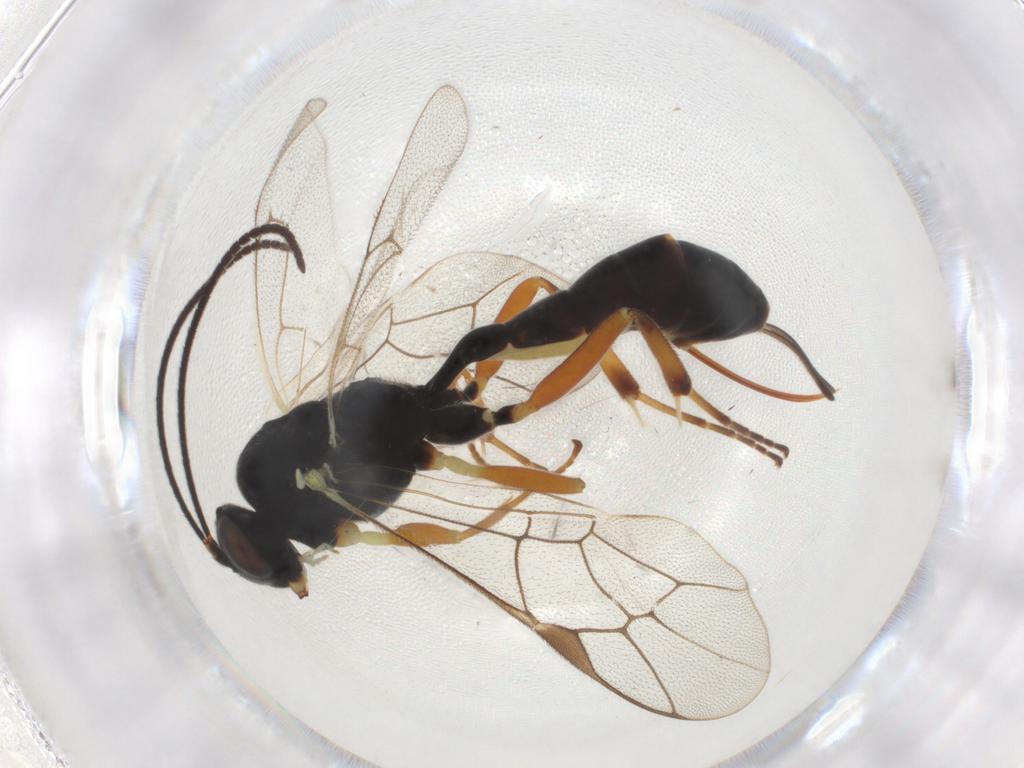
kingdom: Animalia
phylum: Arthropoda
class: Insecta
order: Hymenoptera
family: Ichneumonidae
